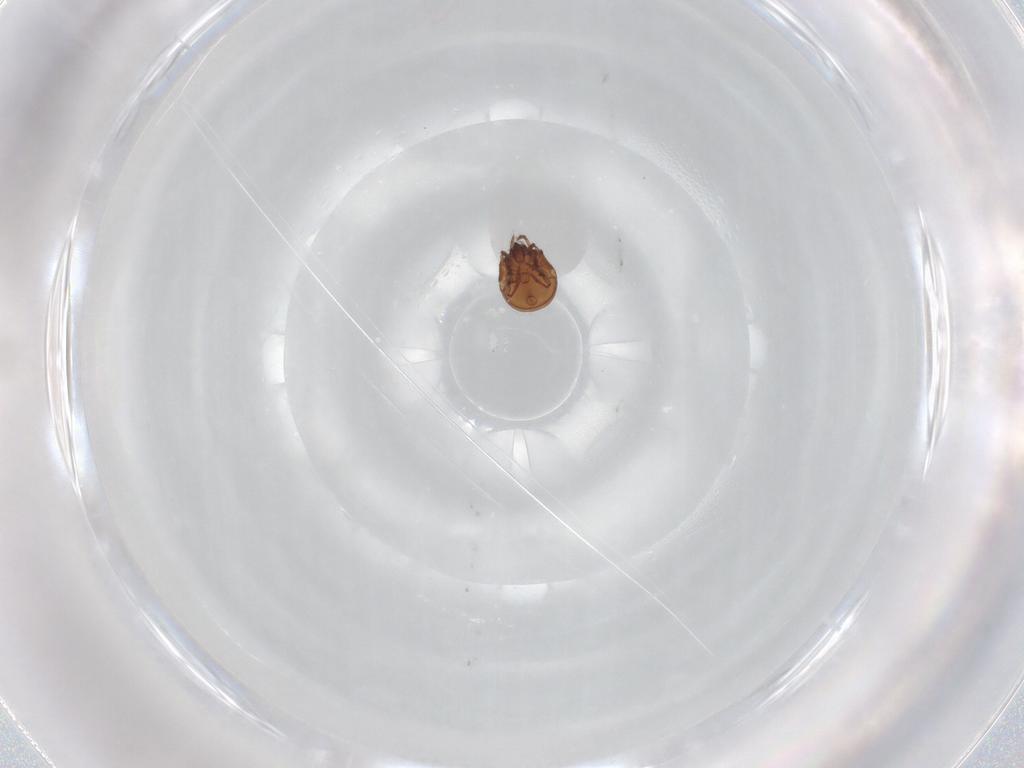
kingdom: Animalia
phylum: Arthropoda
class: Arachnida
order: Sarcoptiformes
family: Phenopelopidae
